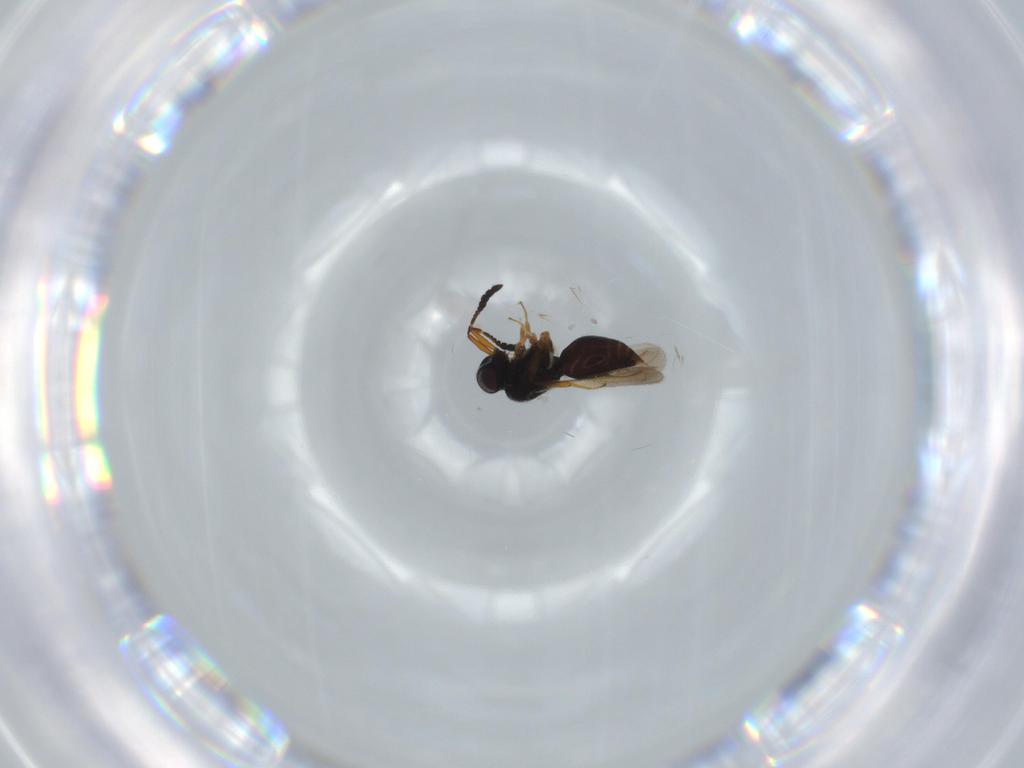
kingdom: Animalia
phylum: Arthropoda
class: Insecta
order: Hymenoptera
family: Ceraphronidae
